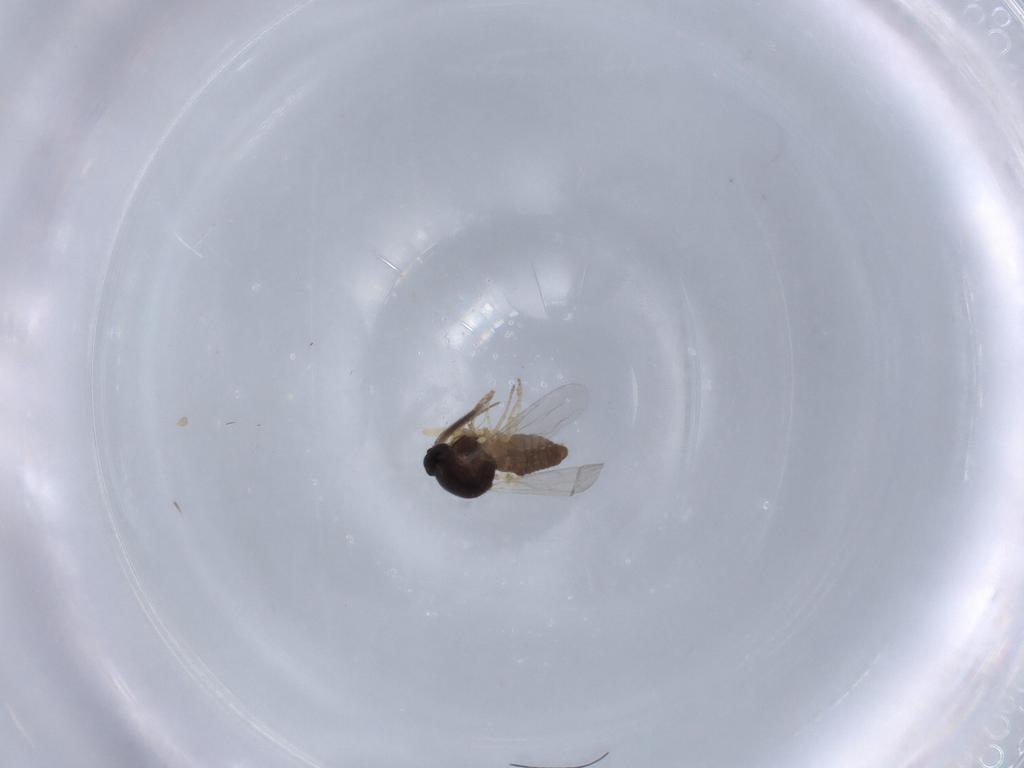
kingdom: Animalia
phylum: Arthropoda
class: Insecta
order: Diptera
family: Ceratopogonidae
